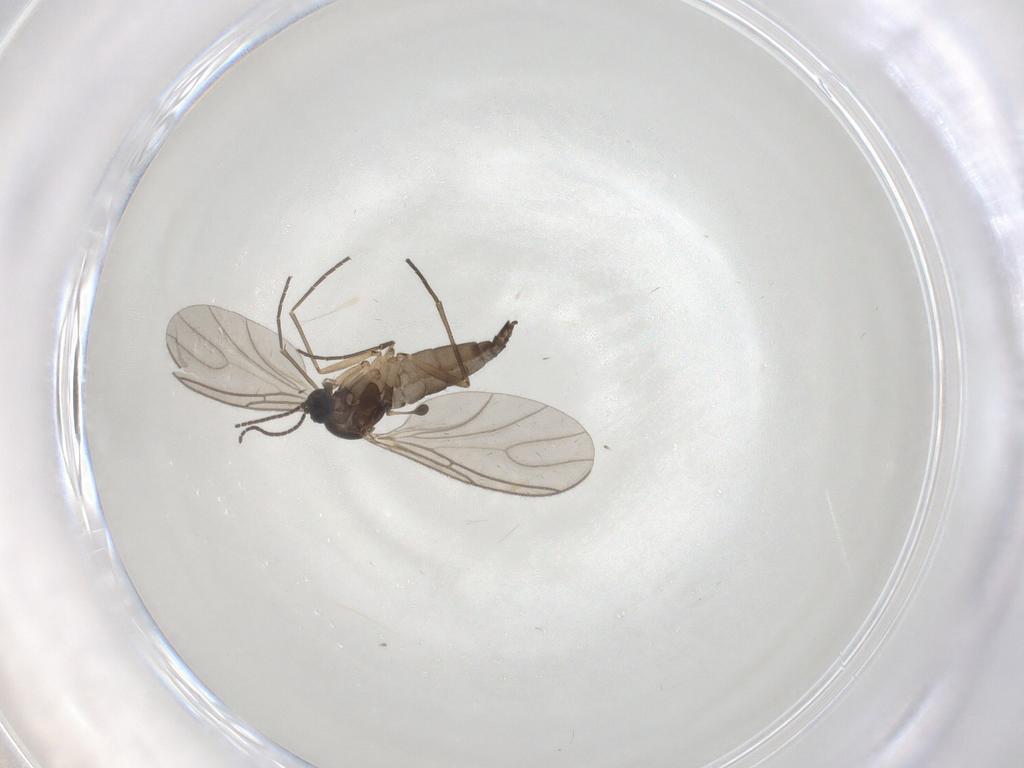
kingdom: Animalia
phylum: Arthropoda
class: Insecta
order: Diptera
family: Sciaridae
